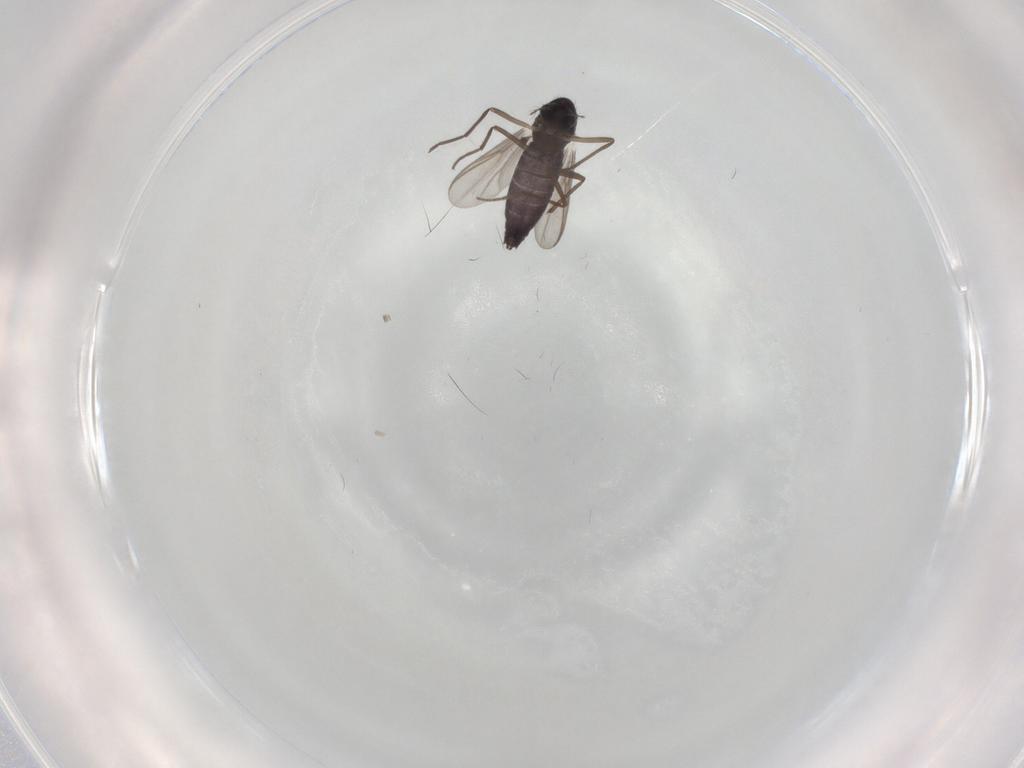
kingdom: Animalia
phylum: Arthropoda
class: Insecta
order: Diptera
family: Chironomidae
